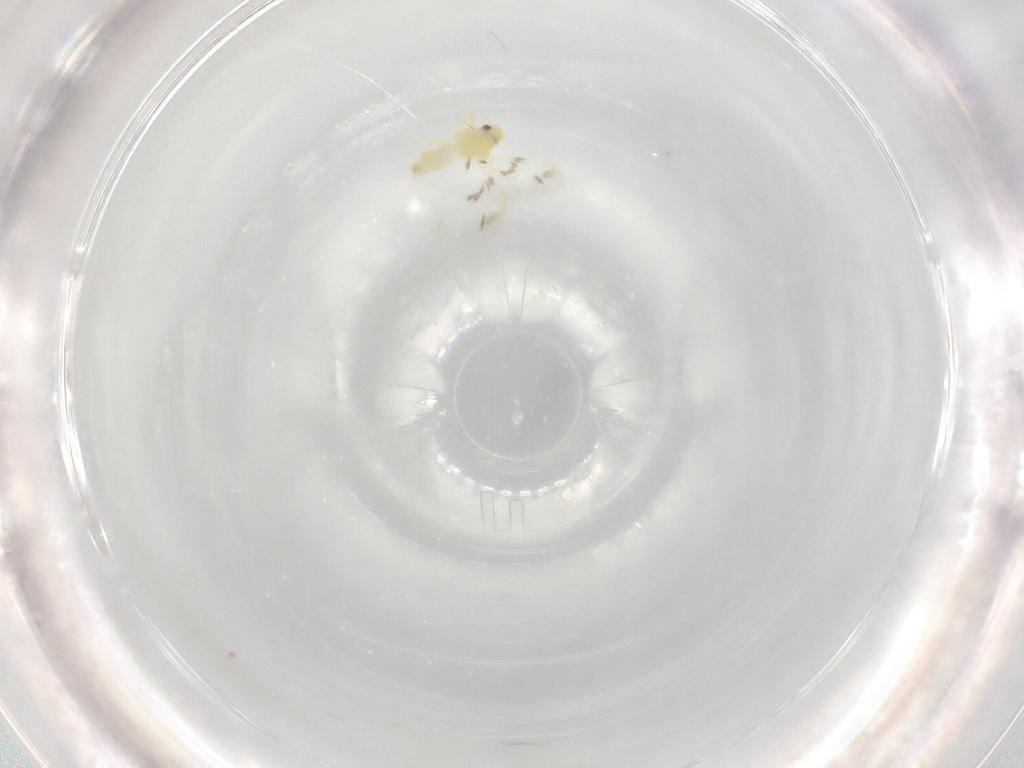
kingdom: Animalia
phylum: Arthropoda
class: Insecta
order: Hemiptera
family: Aleyrodidae
